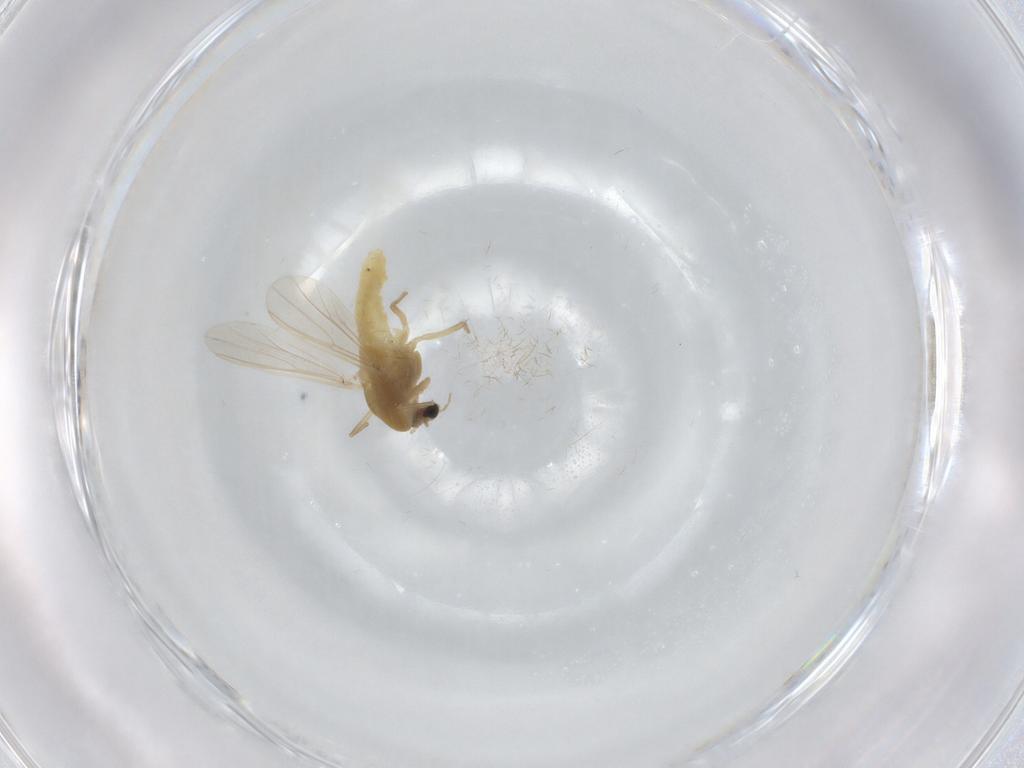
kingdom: Animalia
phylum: Arthropoda
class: Insecta
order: Diptera
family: Chironomidae
